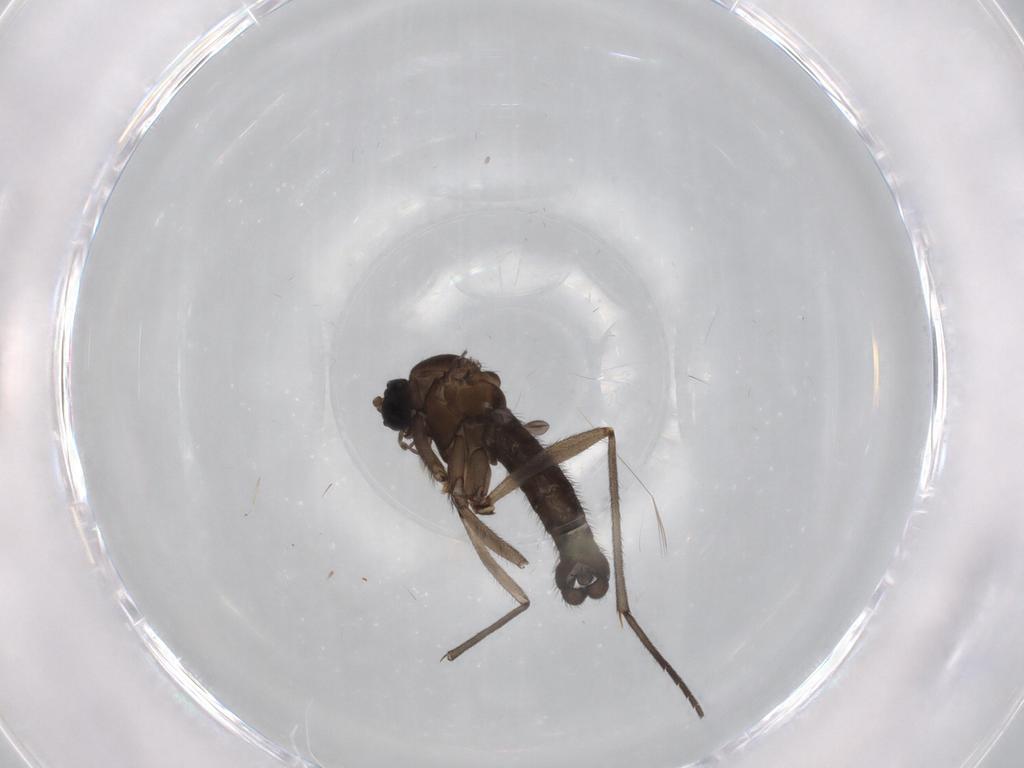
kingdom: Animalia
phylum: Arthropoda
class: Insecta
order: Diptera
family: Sciaridae
